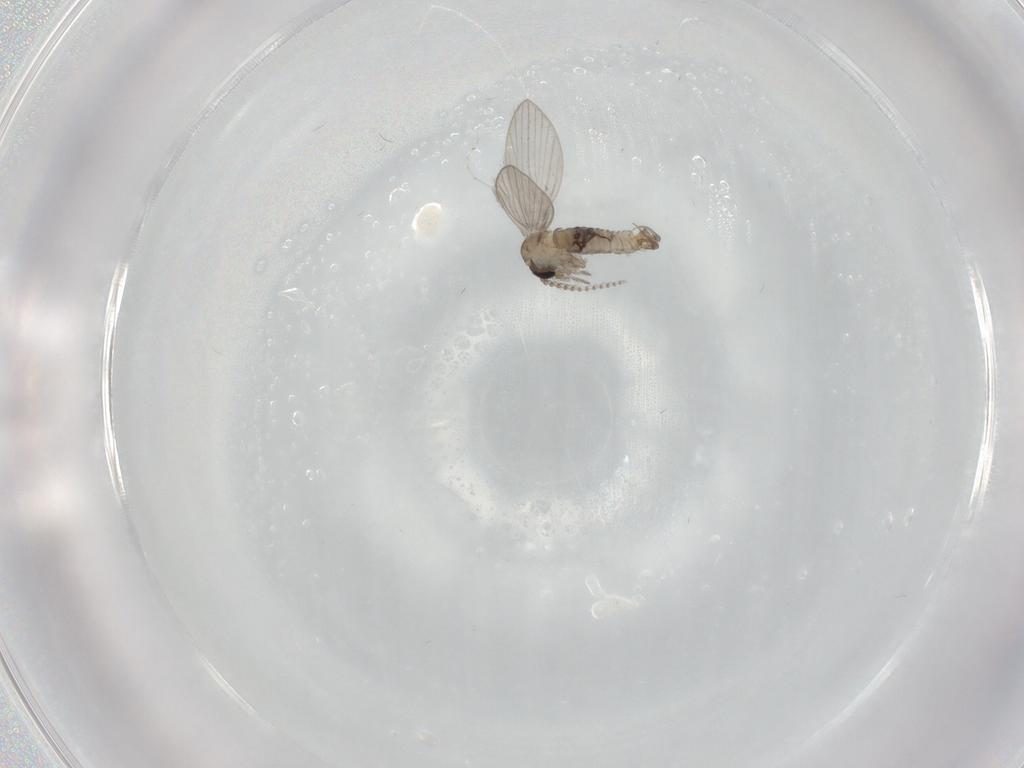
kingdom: Animalia
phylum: Arthropoda
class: Insecta
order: Diptera
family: Psychodidae
